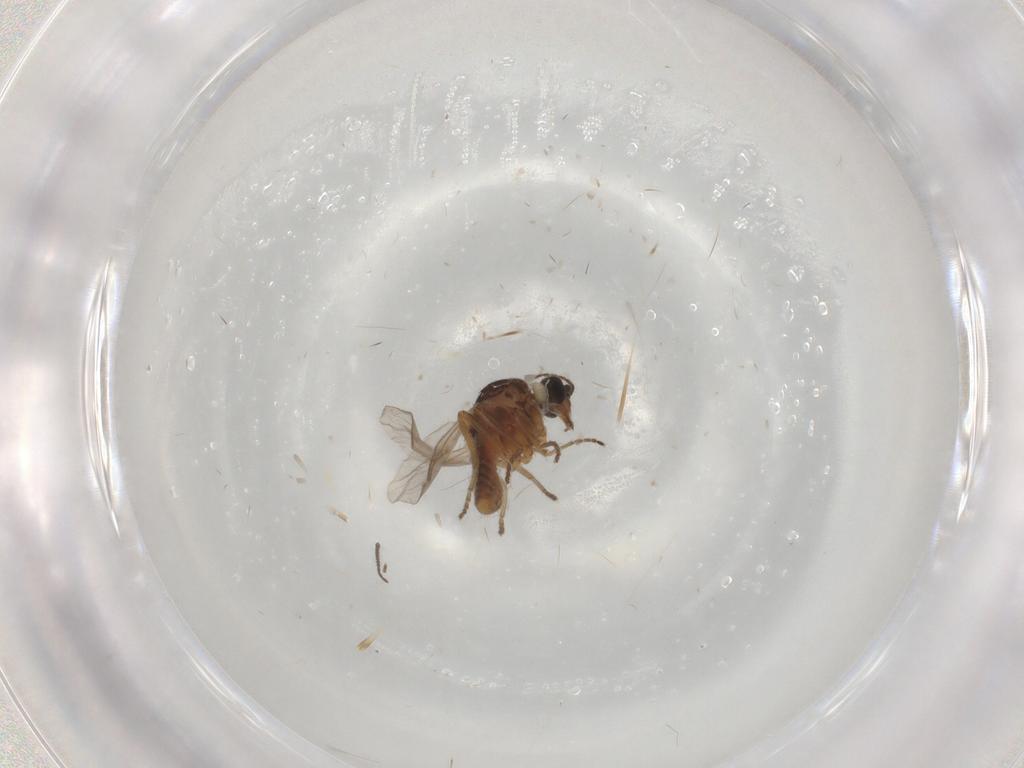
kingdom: Animalia
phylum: Arthropoda
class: Insecta
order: Diptera
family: Ceratopogonidae
